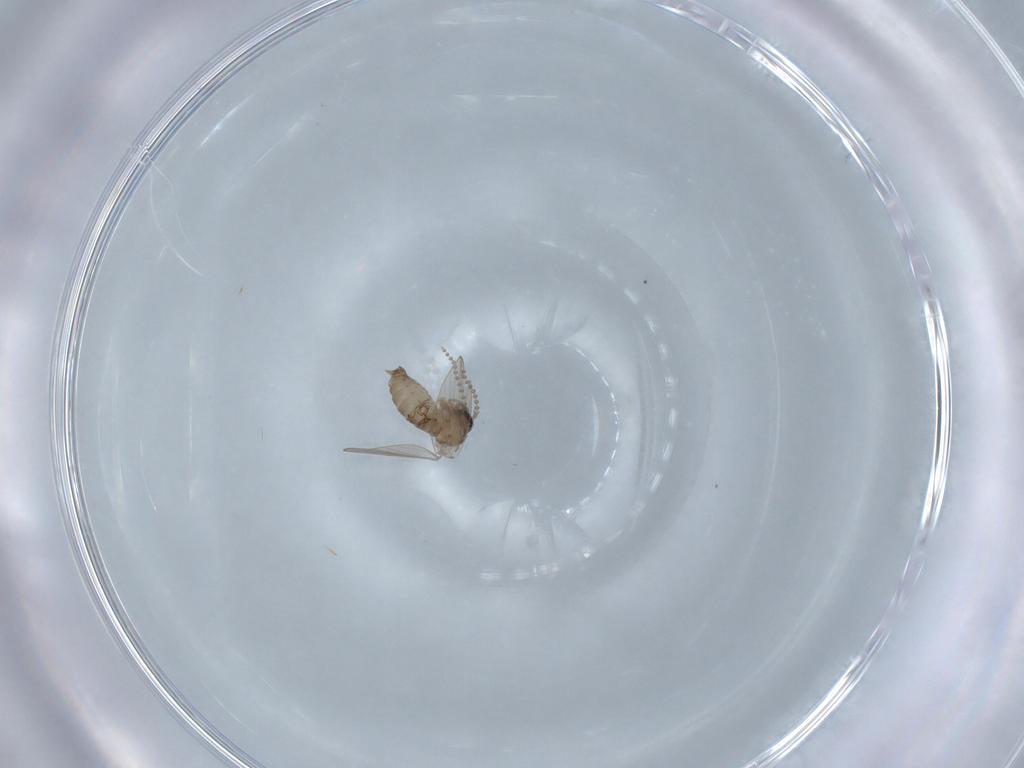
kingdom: Animalia
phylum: Arthropoda
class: Insecta
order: Diptera
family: Psychodidae
